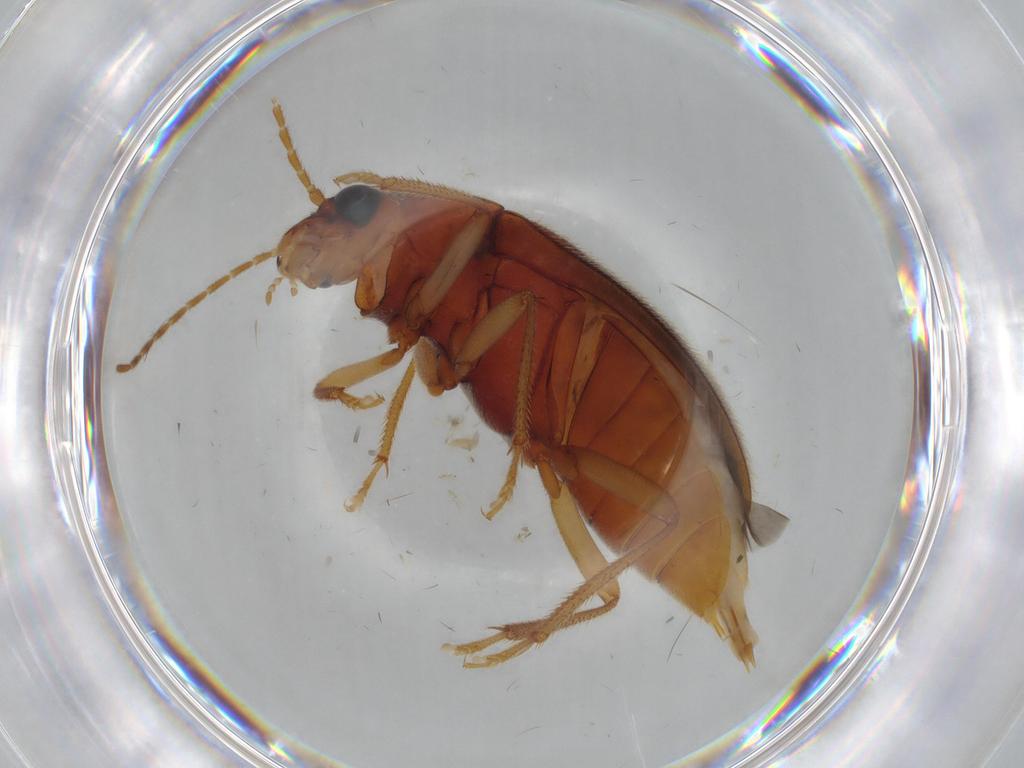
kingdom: Animalia
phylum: Arthropoda
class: Insecta
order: Coleoptera
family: Ptilodactylidae
